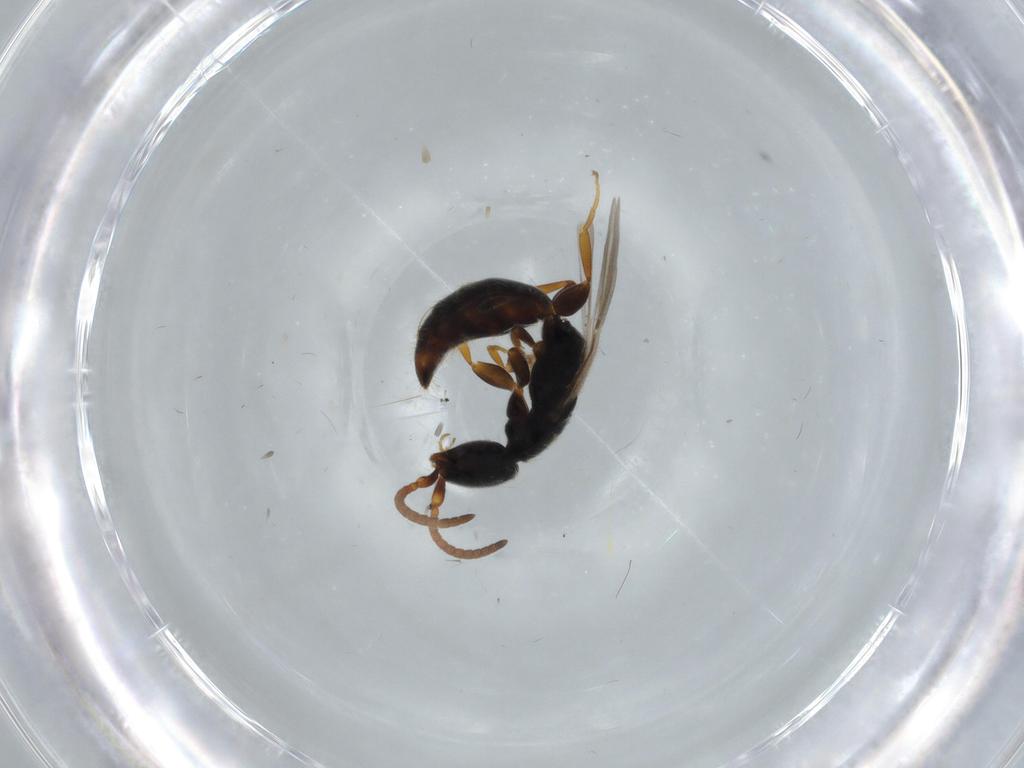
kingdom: Animalia
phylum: Arthropoda
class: Insecta
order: Hymenoptera
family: Bethylidae
